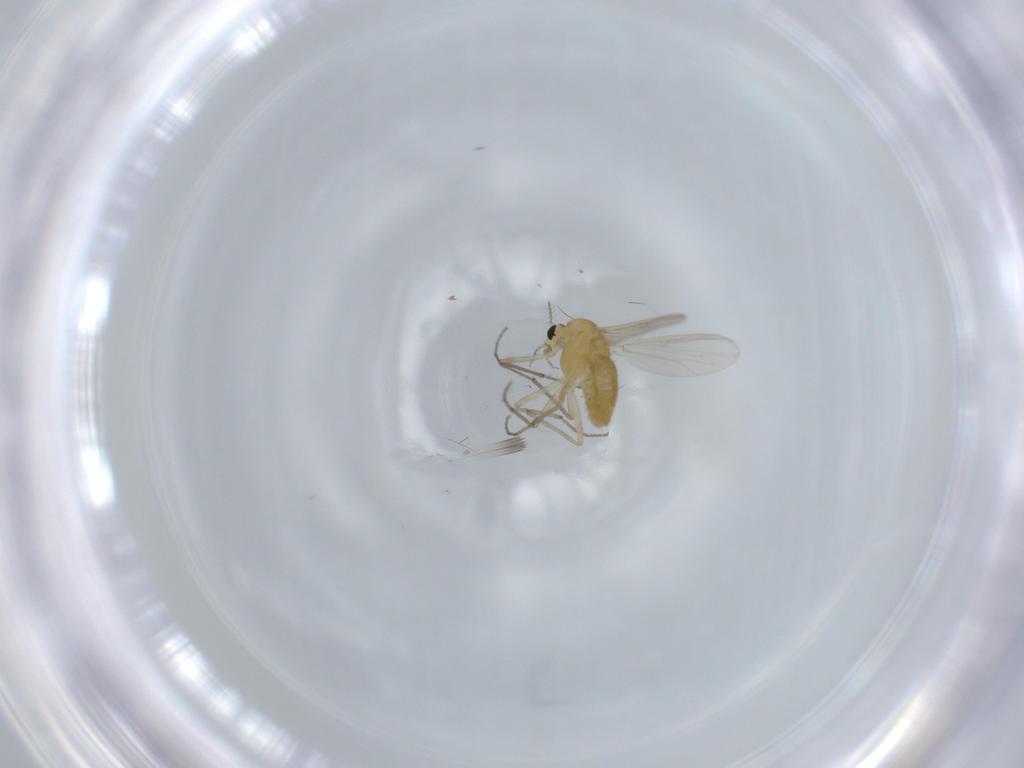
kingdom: Animalia
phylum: Arthropoda
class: Insecta
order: Diptera
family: Chironomidae
